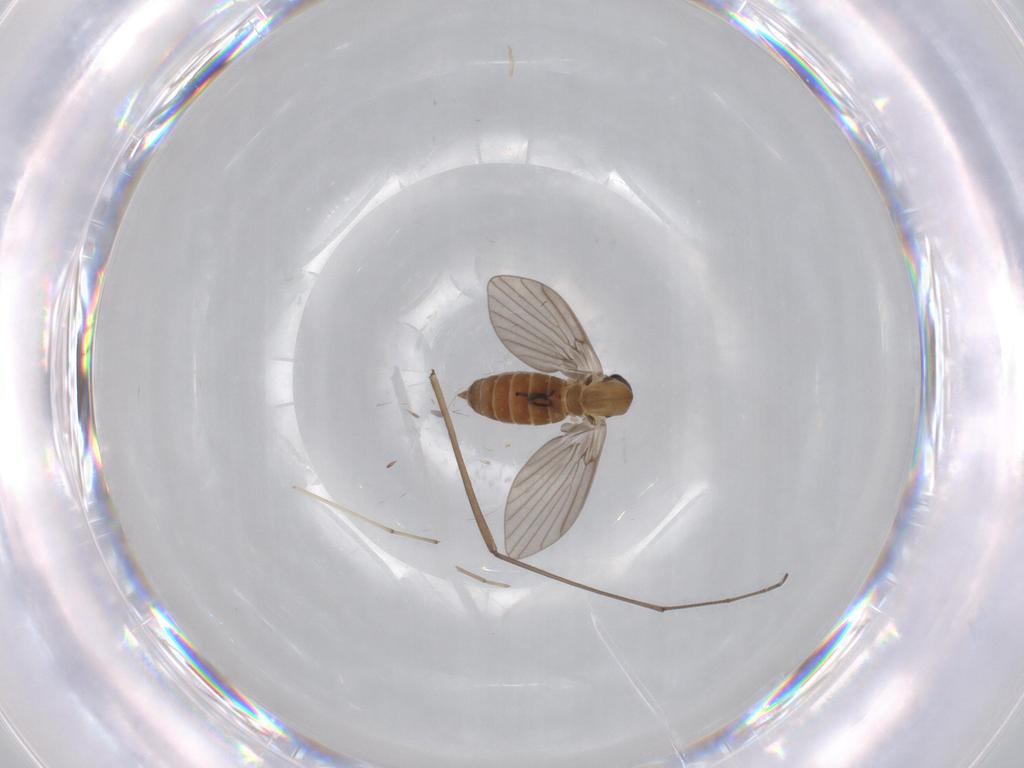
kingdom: Animalia
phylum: Arthropoda
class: Insecta
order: Diptera
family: Limoniidae
